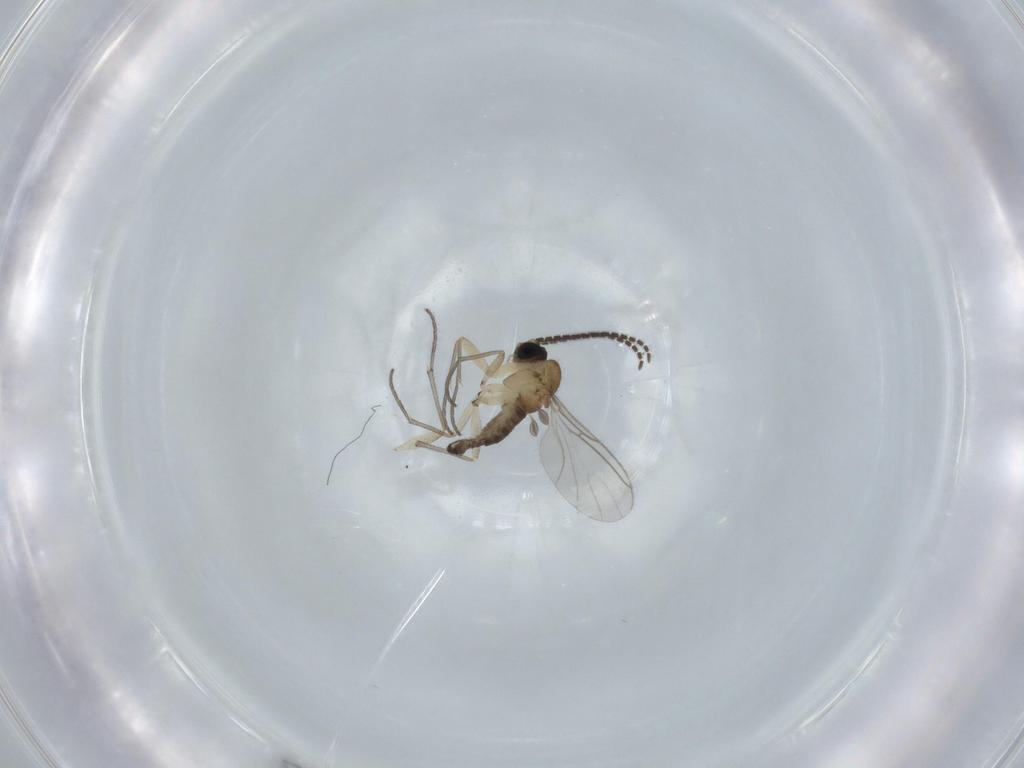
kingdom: Animalia
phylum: Arthropoda
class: Insecta
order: Diptera
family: Sciaridae
